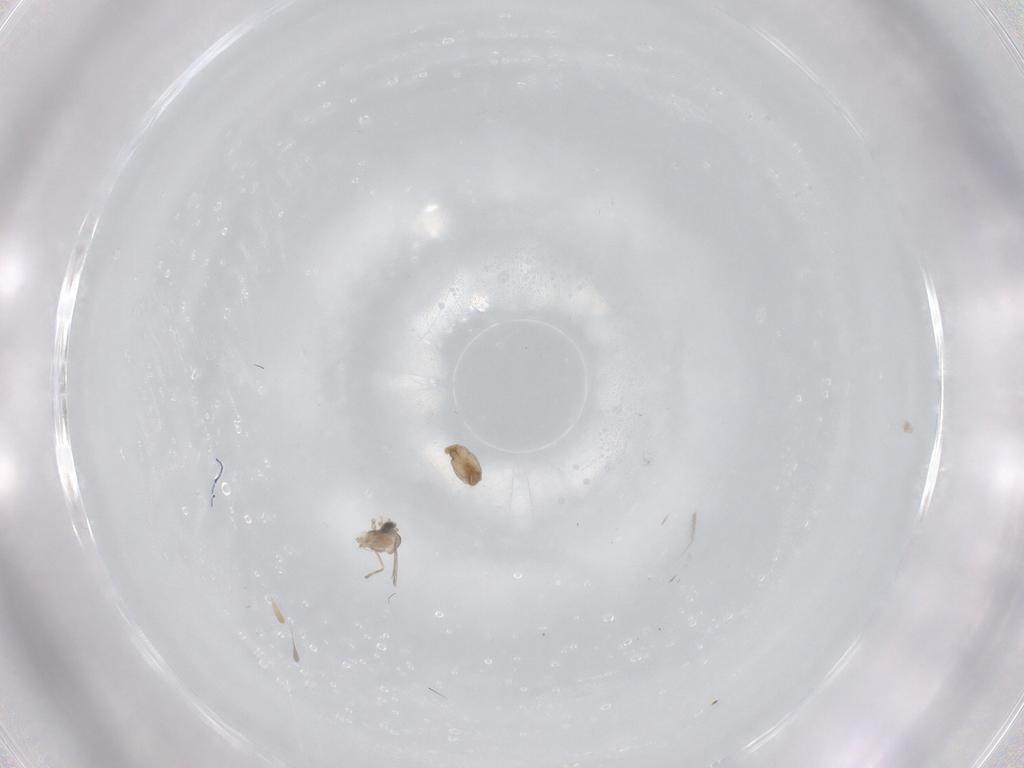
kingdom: Animalia
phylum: Arthropoda
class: Insecta
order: Diptera
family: Cecidomyiidae
